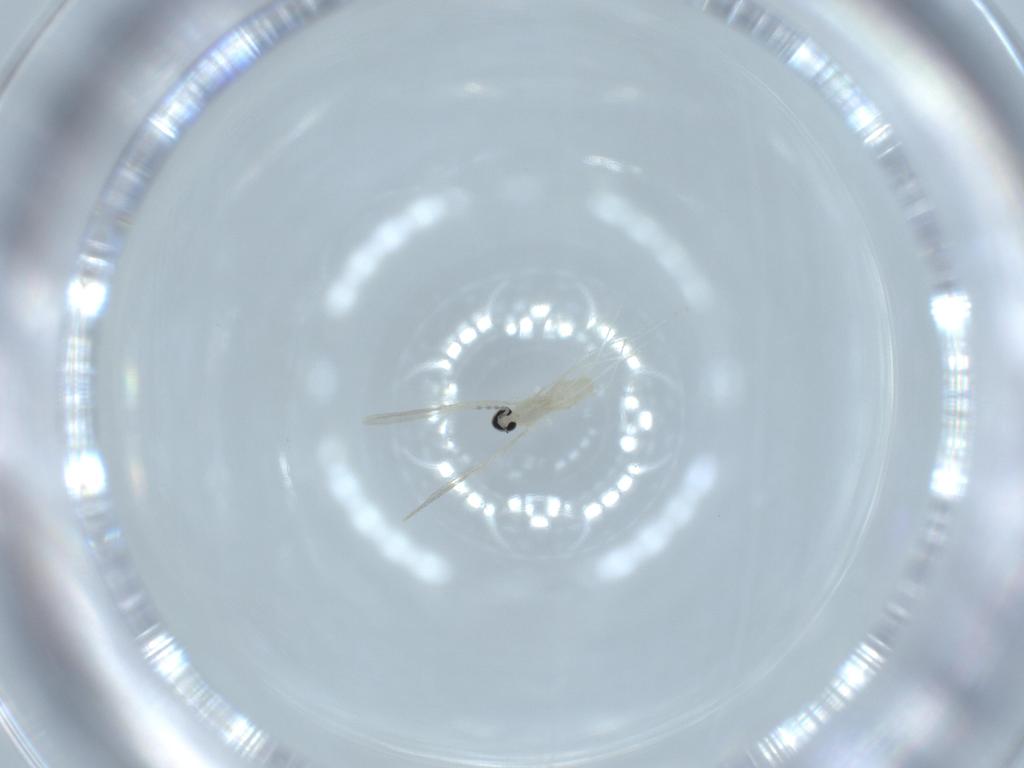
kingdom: Animalia
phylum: Arthropoda
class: Insecta
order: Diptera
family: Cecidomyiidae
